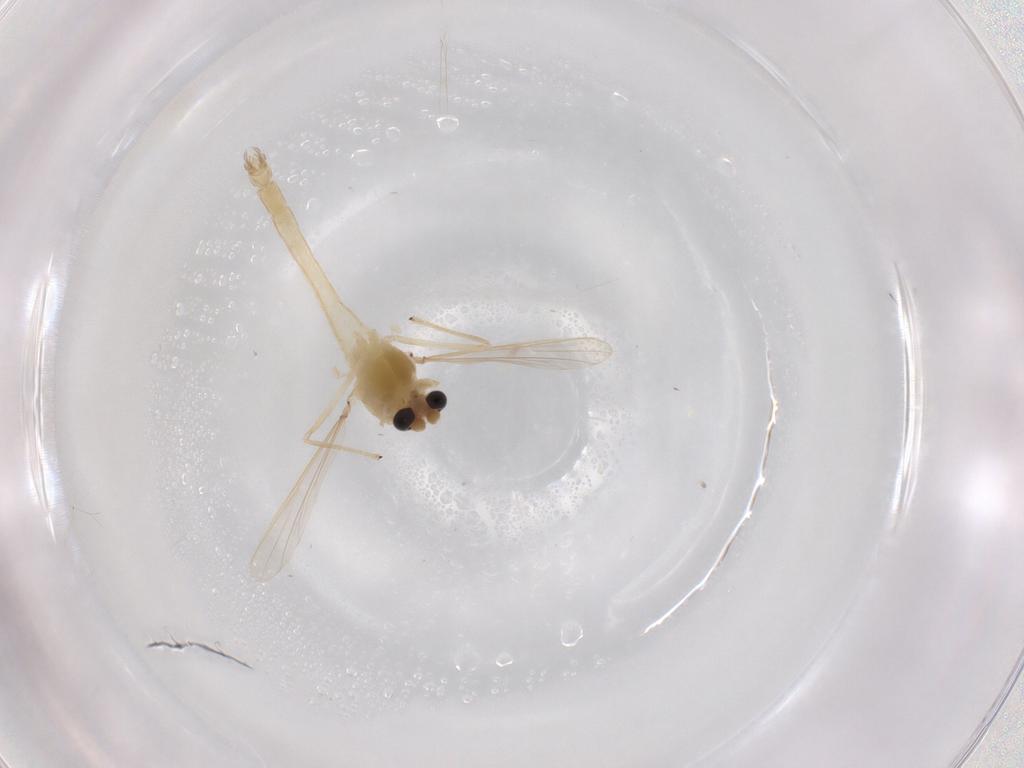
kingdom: Animalia
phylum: Arthropoda
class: Insecta
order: Diptera
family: Chironomidae
